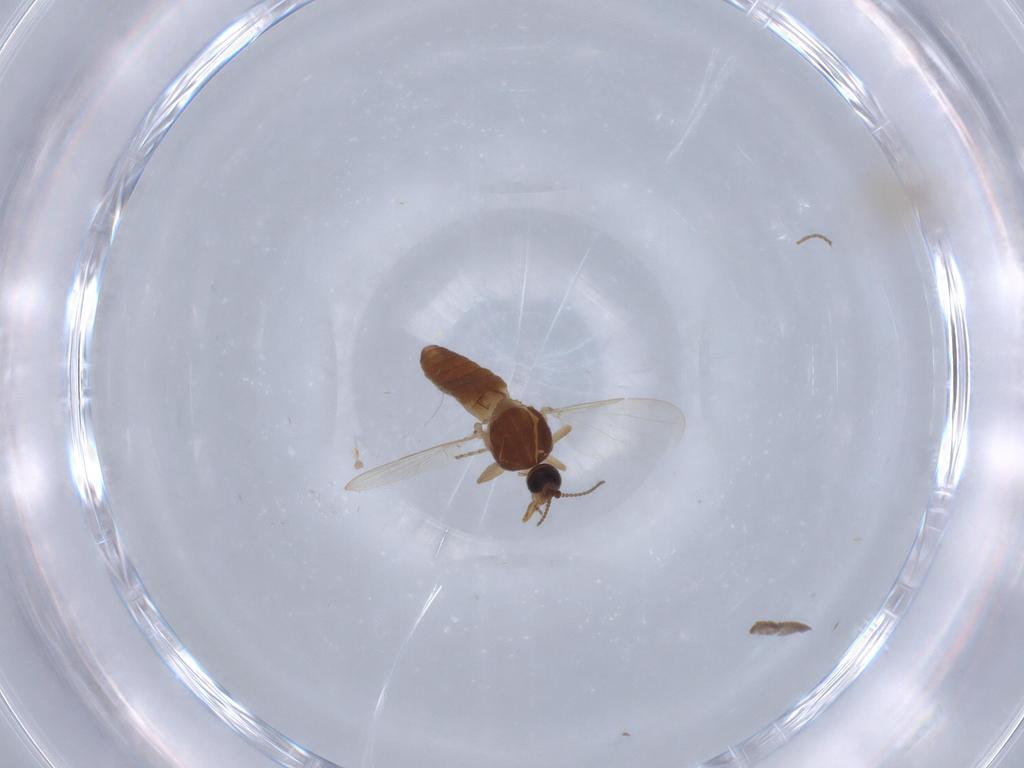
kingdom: Animalia
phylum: Arthropoda
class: Insecta
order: Diptera
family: Ceratopogonidae
